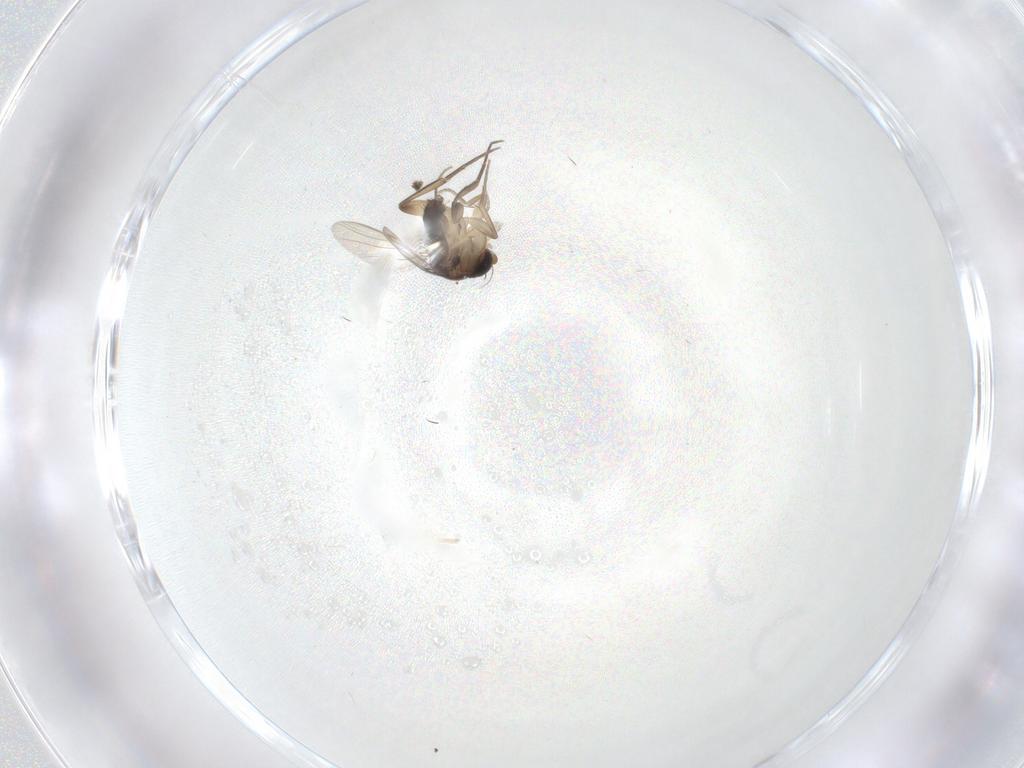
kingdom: Animalia
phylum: Arthropoda
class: Insecta
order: Diptera
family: Phoridae
